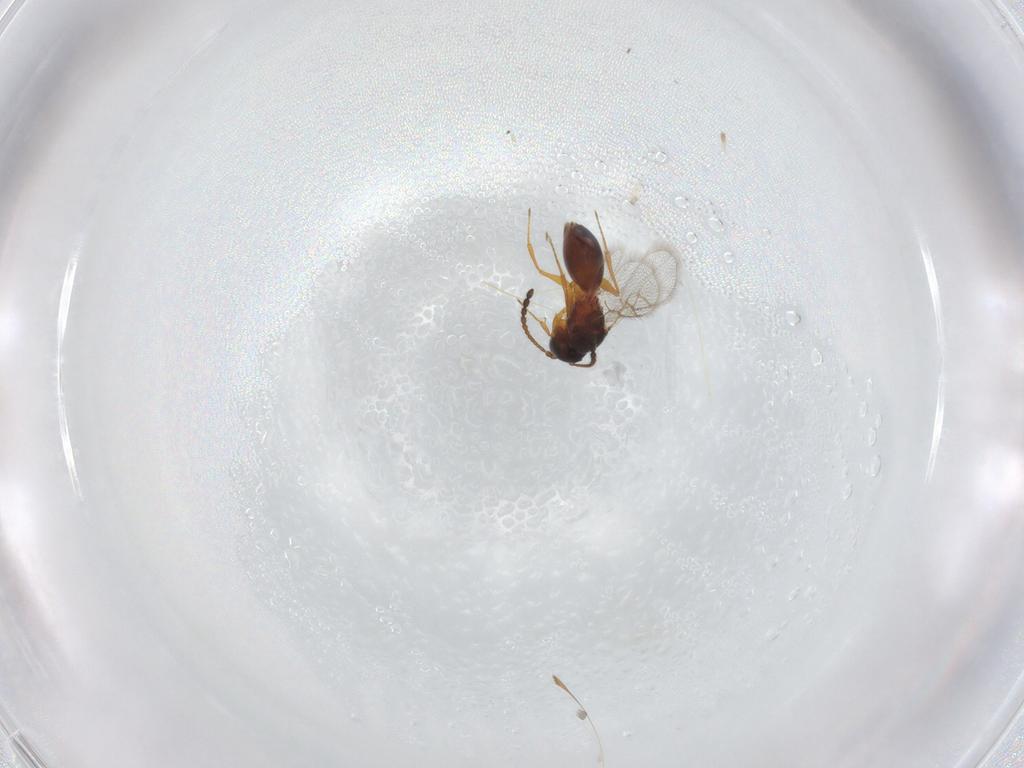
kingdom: Animalia
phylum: Arthropoda
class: Insecta
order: Hymenoptera
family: Figitidae
